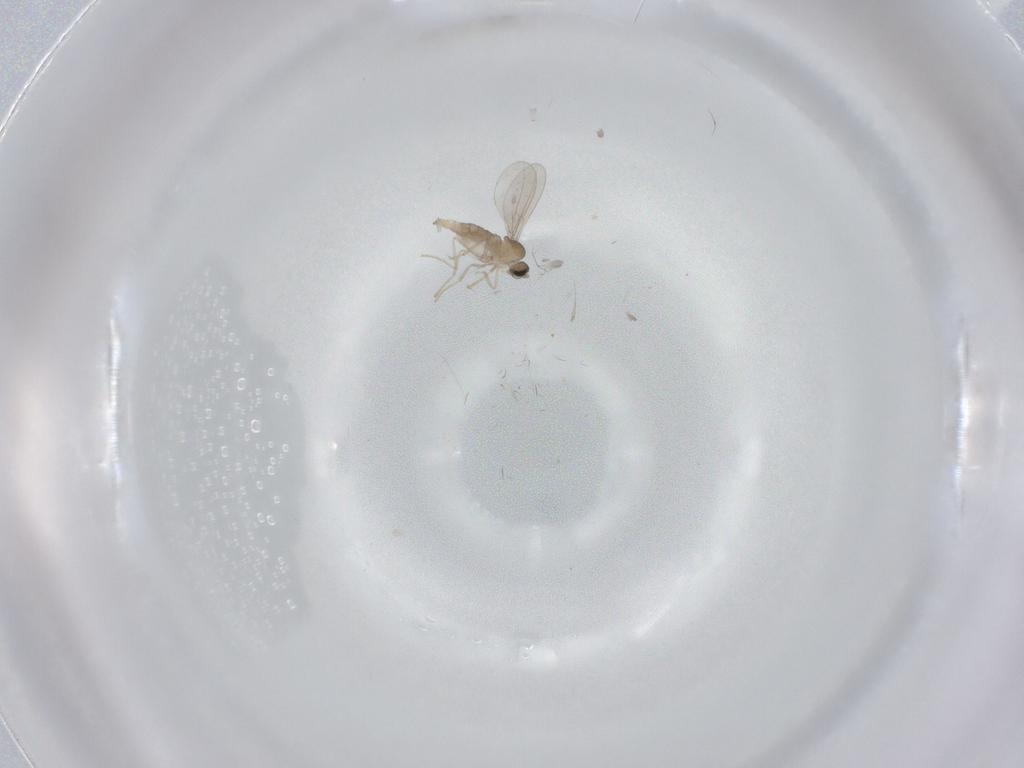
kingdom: Animalia
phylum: Arthropoda
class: Insecta
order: Diptera
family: Cecidomyiidae
